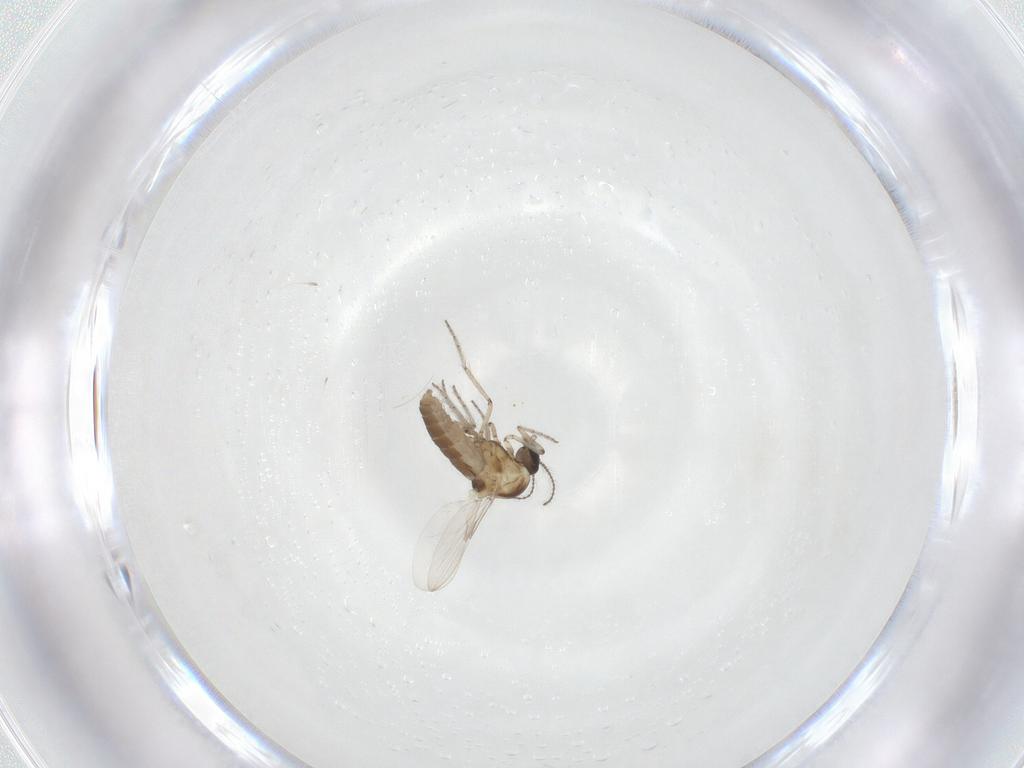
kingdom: Animalia
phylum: Arthropoda
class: Insecta
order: Diptera
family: Ceratopogonidae
